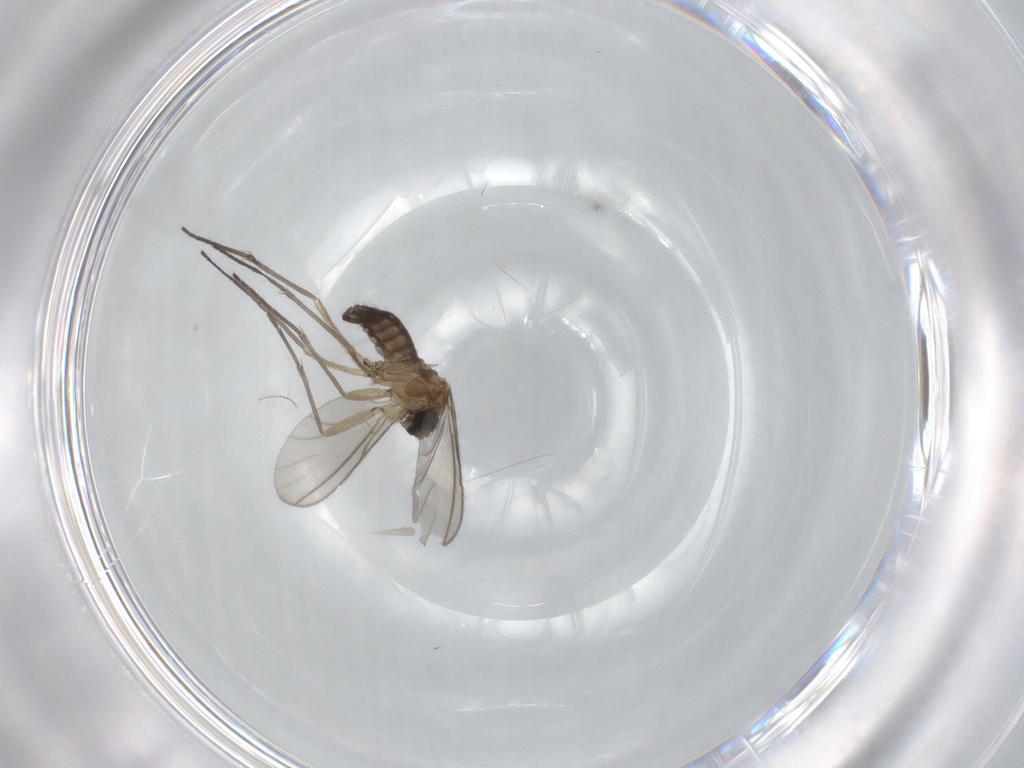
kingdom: Animalia
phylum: Arthropoda
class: Insecta
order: Diptera
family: Sciaridae
